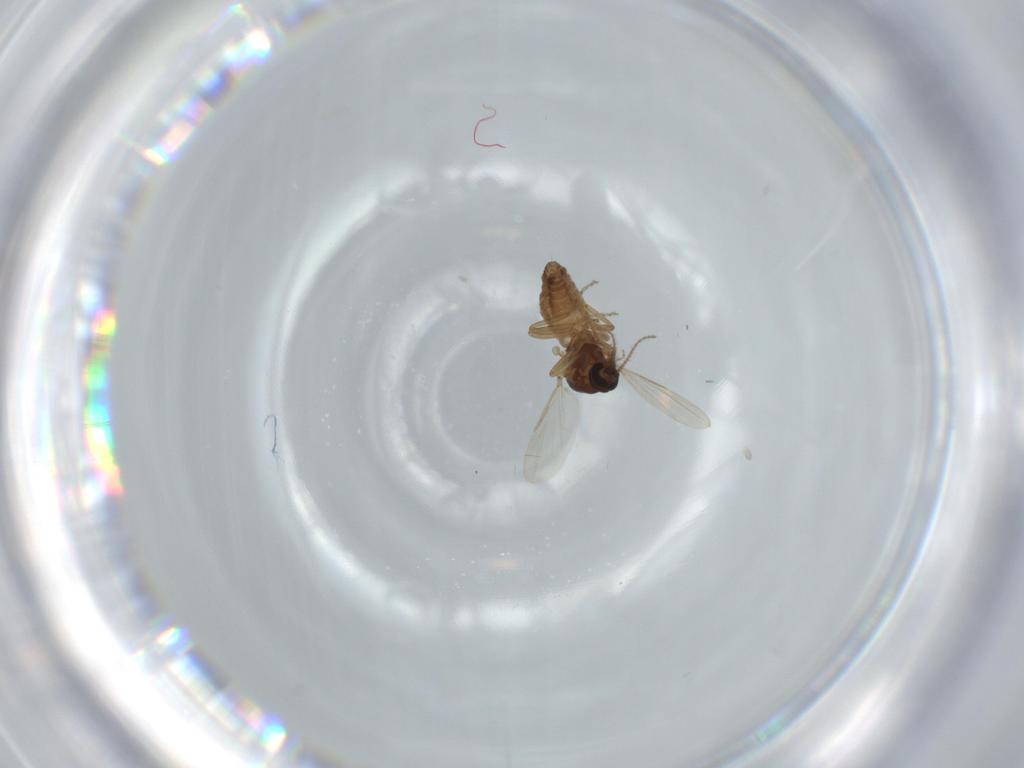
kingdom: Animalia
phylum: Arthropoda
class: Insecta
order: Diptera
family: Ceratopogonidae
